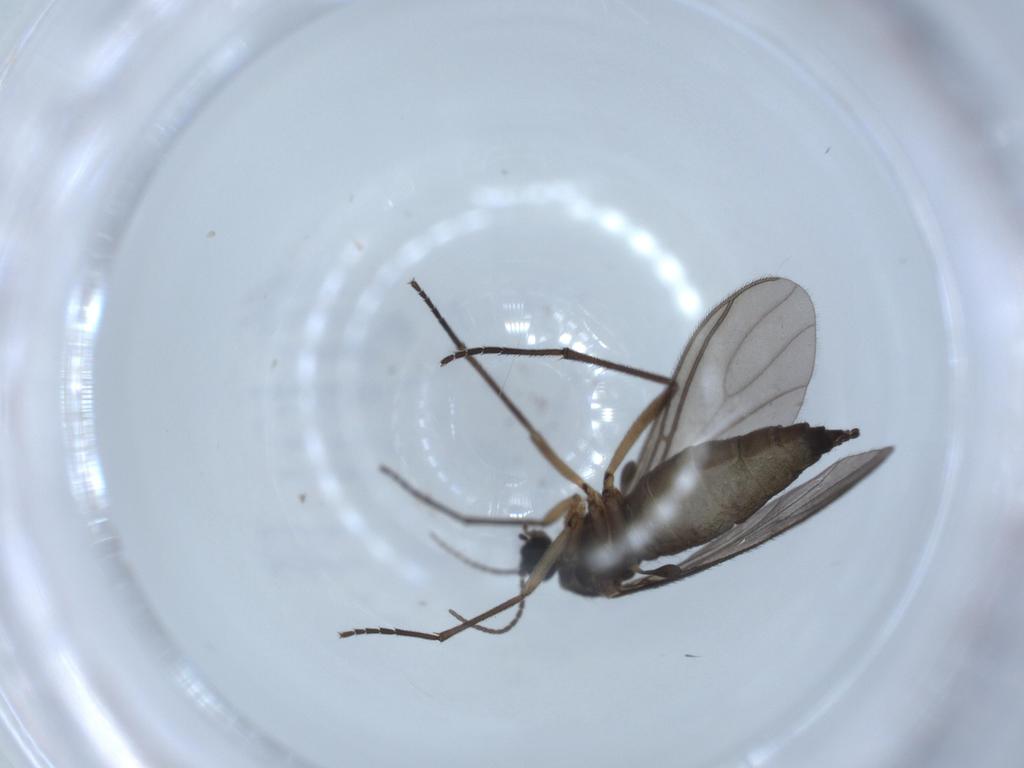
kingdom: Animalia
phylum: Arthropoda
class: Insecta
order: Diptera
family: Sciaridae
